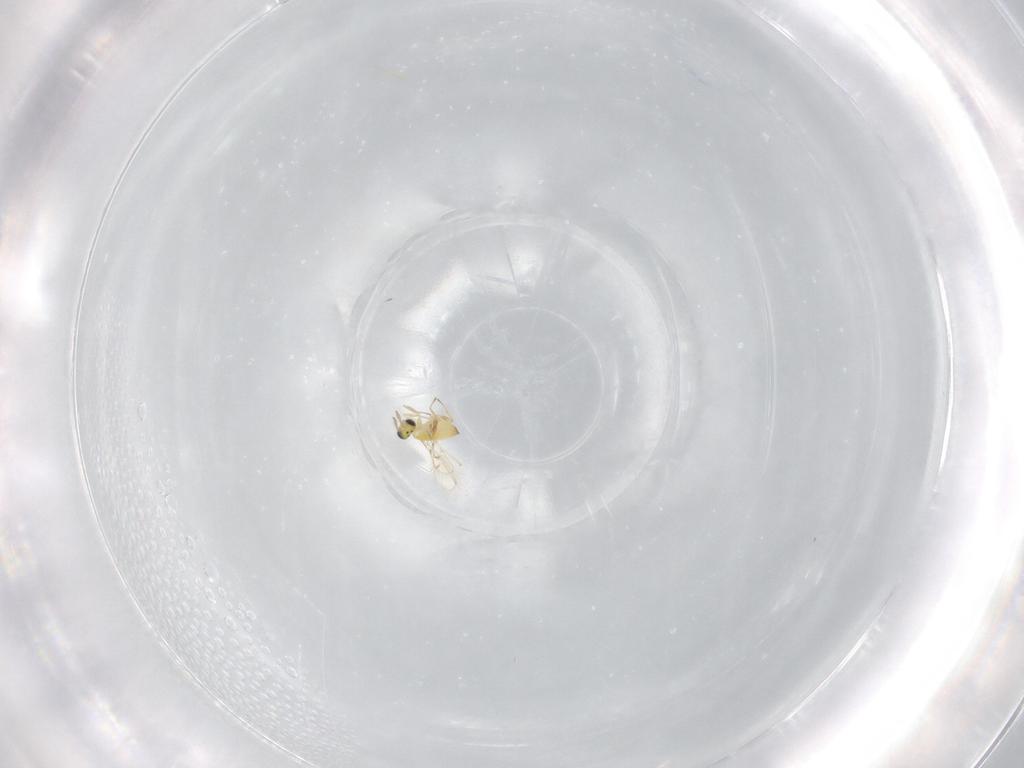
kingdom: Animalia
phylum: Arthropoda
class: Insecta
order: Hymenoptera
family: Trichogrammatidae
